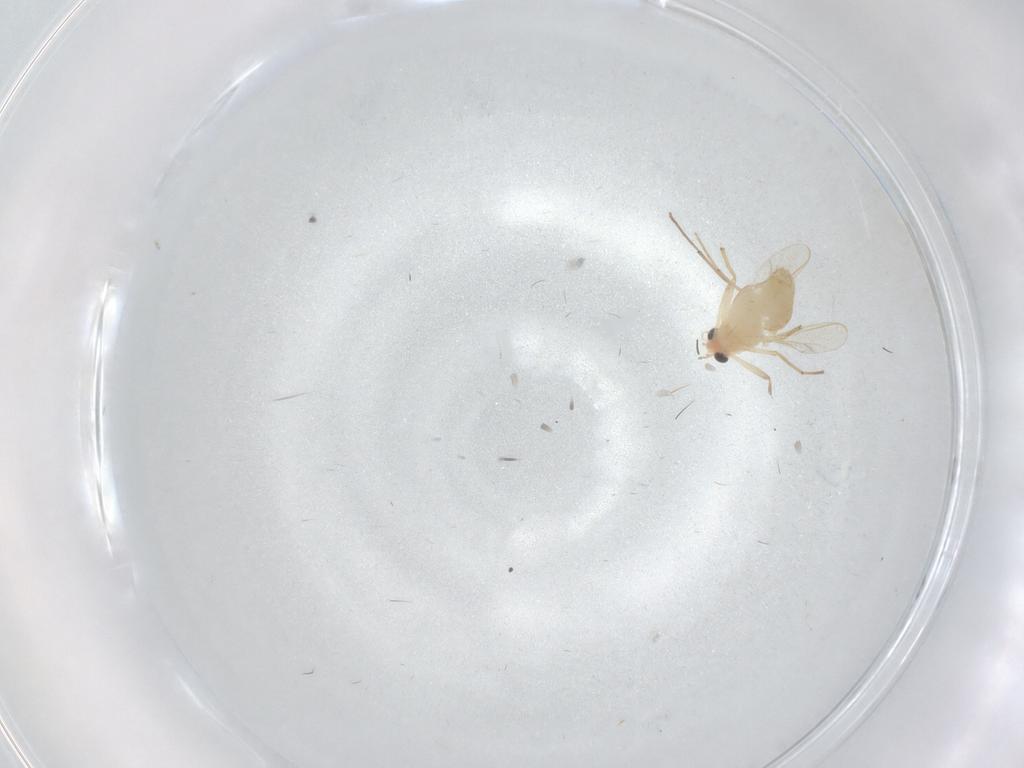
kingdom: Animalia
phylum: Arthropoda
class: Insecta
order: Diptera
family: Chironomidae
